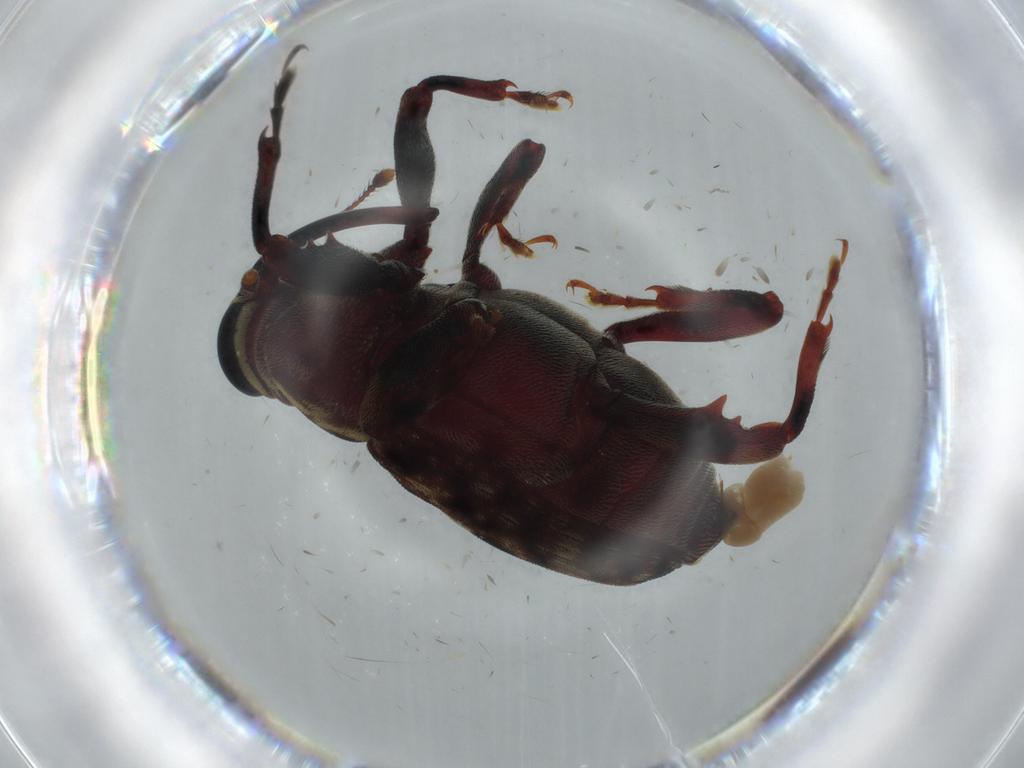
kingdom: Animalia
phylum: Arthropoda
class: Insecta
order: Coleoptera
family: Curculionidae
